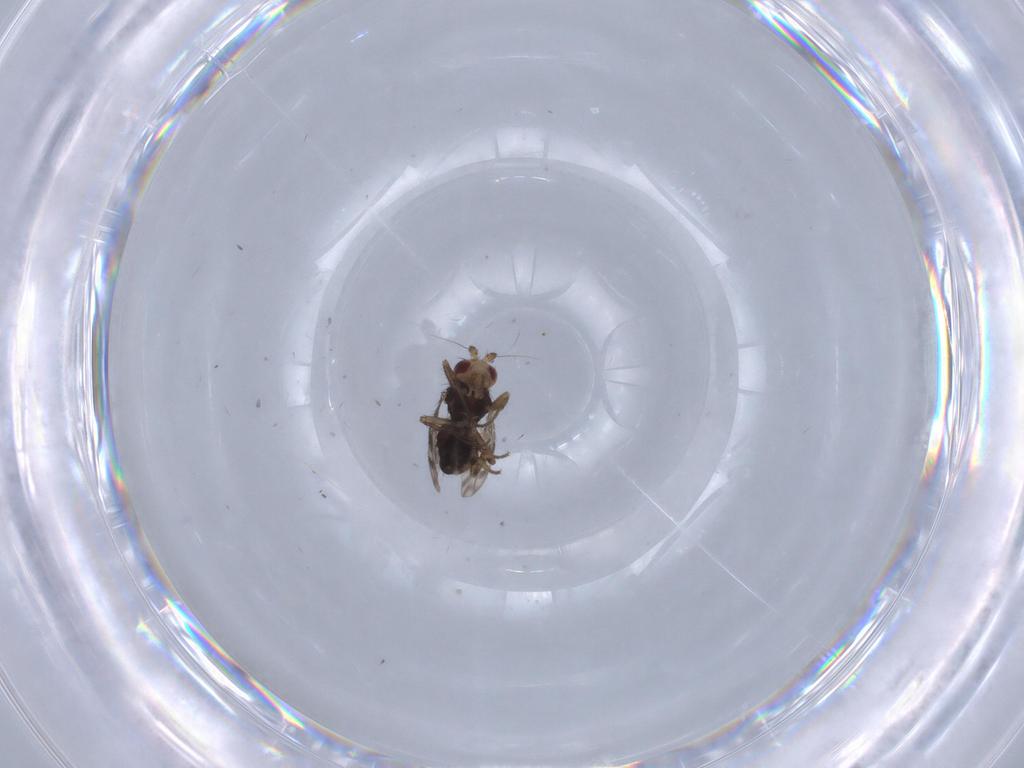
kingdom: Animalia
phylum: Arthropoda
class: Insecta
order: Diptera
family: Sphaeroceridae
